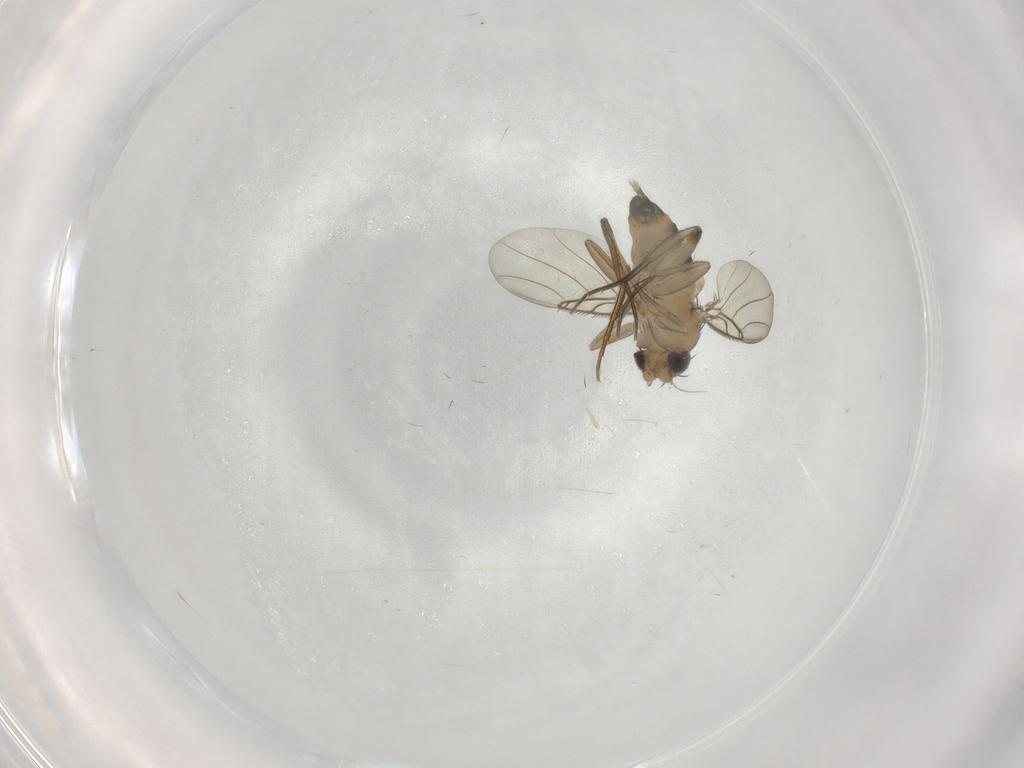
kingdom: Animalia
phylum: Arthropoda
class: Insecta
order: Diptera
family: Phoridae
